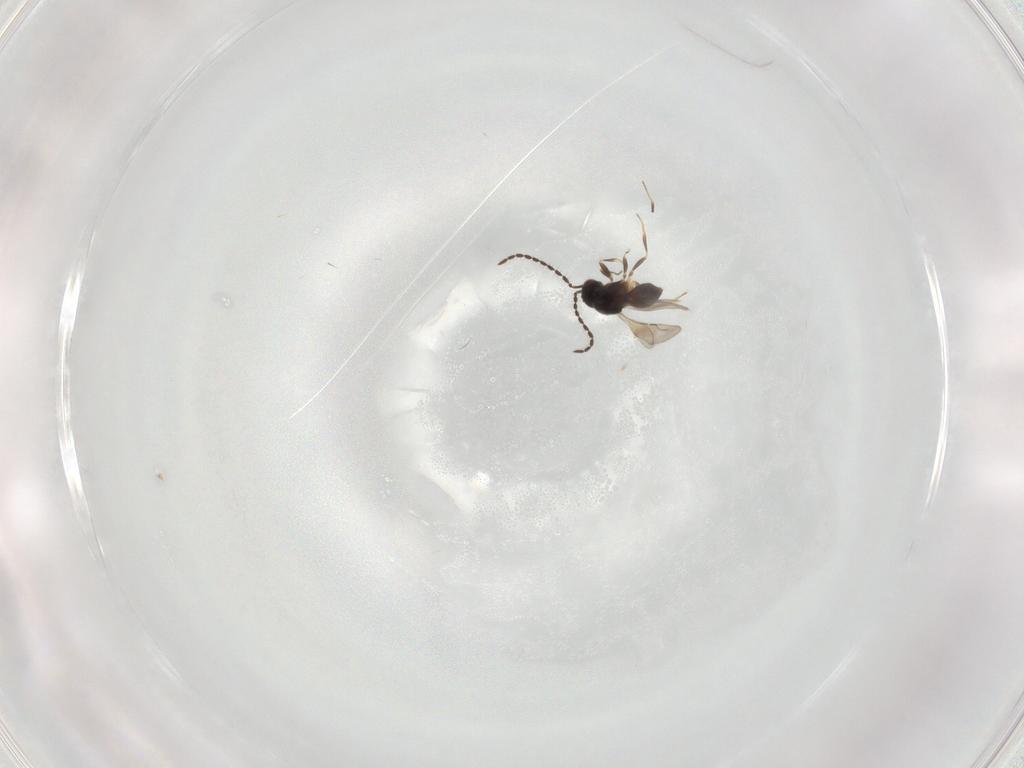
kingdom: Animalia
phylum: Arthropoda
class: Insecta
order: Hymenoptera
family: Ceraphronidae
